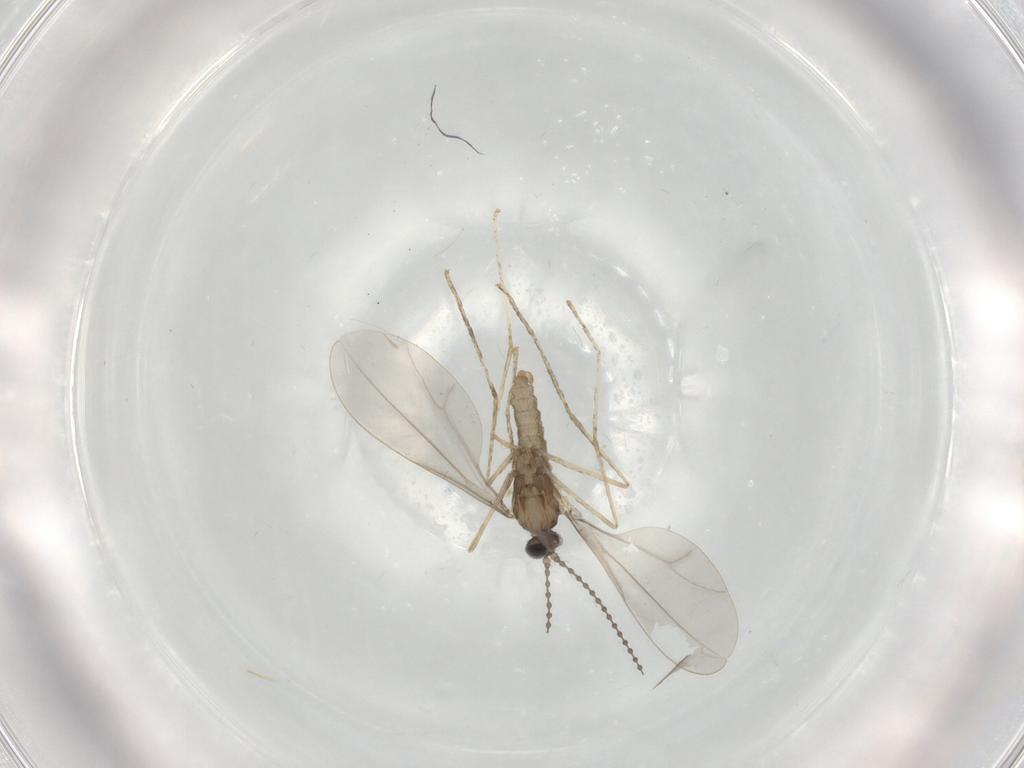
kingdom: Animalia
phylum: Arthropoda
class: Insecta
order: Diptera
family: Cecidomyiidae
